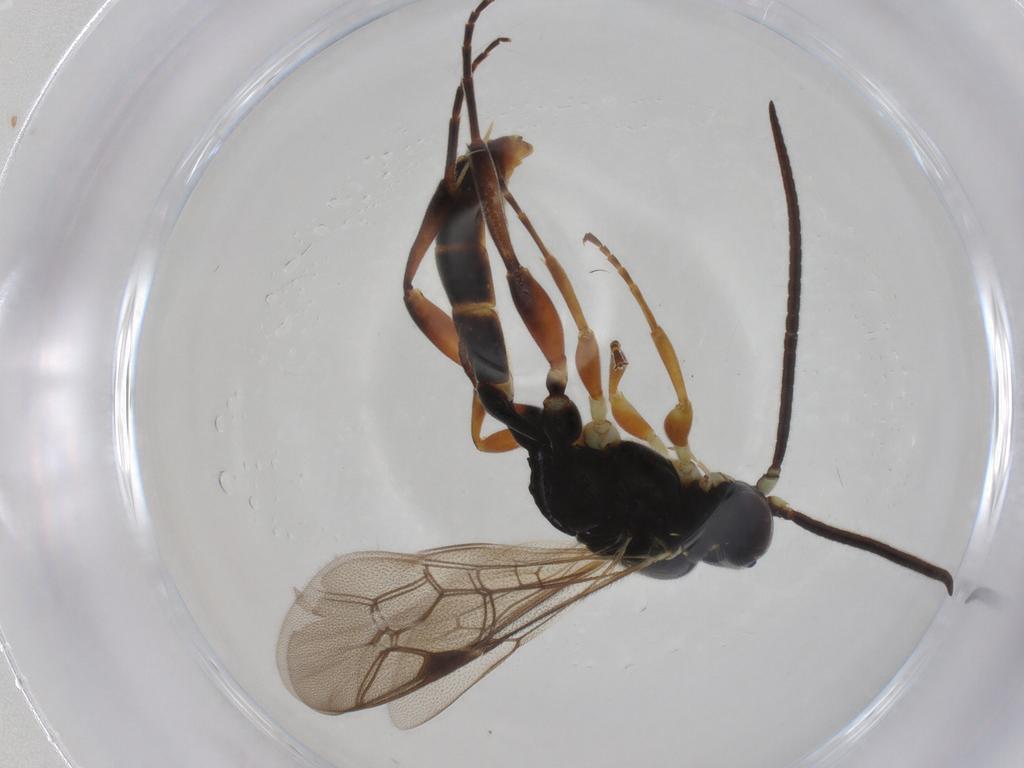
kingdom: Animalia
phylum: Arthropoda
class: Insecta
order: Hymenoptera
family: Ichneumonidae
